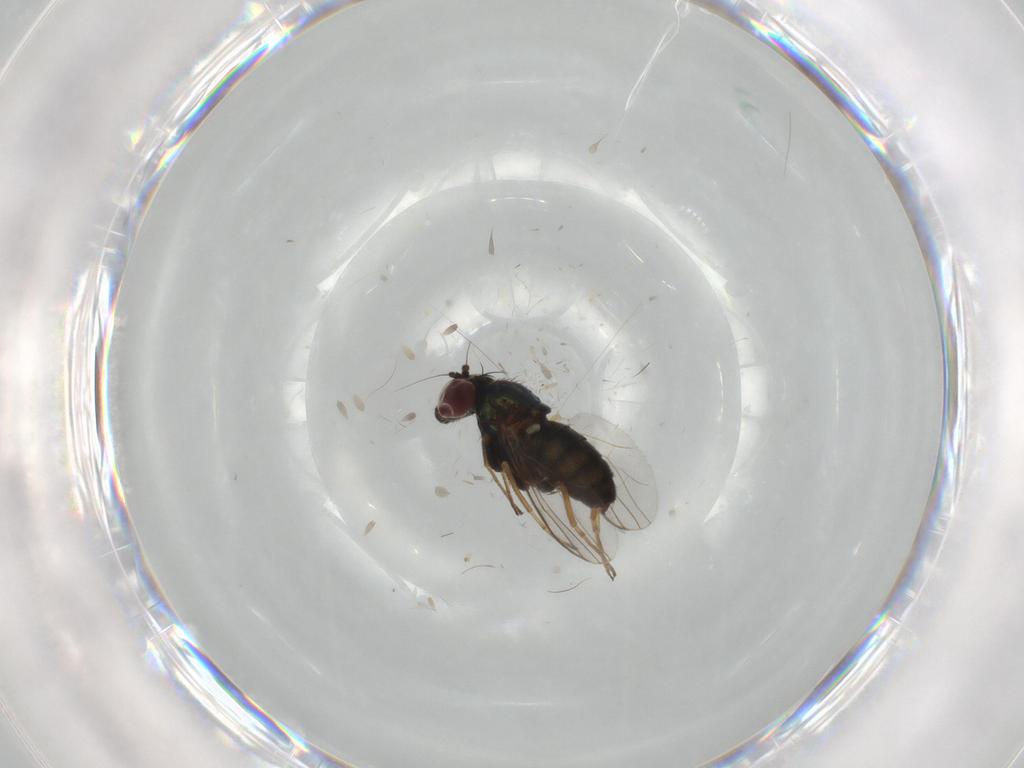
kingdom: Animalia
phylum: Arthropoda
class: Insecta
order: Diptera
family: Dolichopodidae
